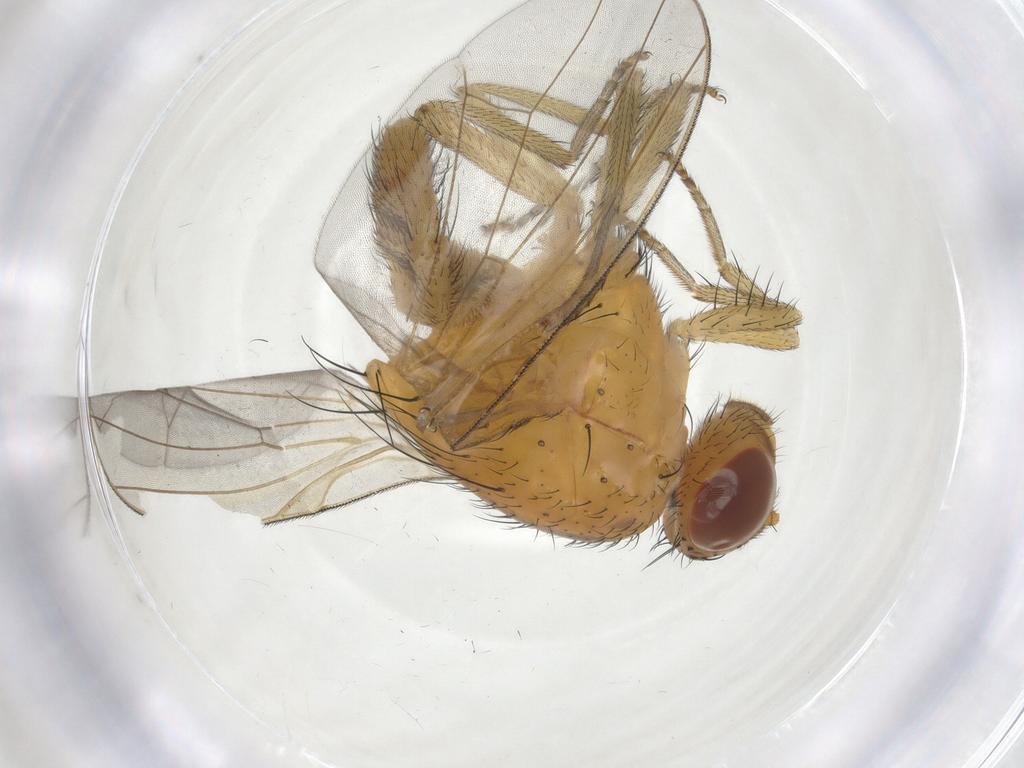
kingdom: Animalia
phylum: Arthropoda
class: Insecta
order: Diptera
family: Chironomidae
